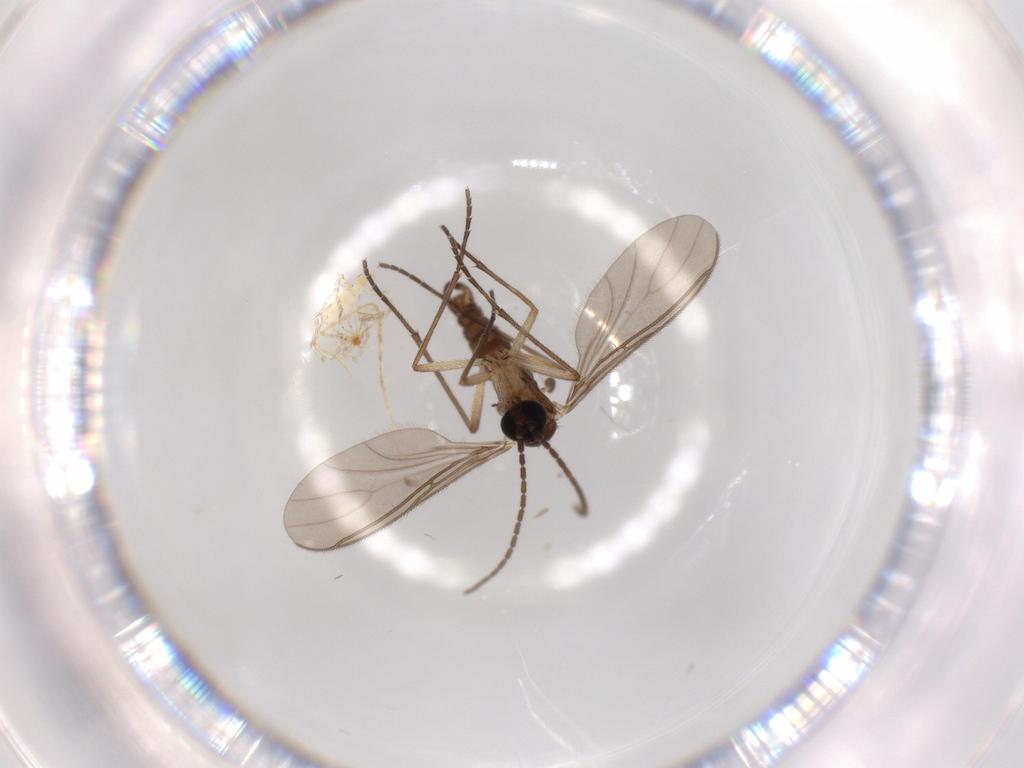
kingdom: Animalia
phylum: Arthropoda
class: Insecta
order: Diptera
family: Sciaridae
